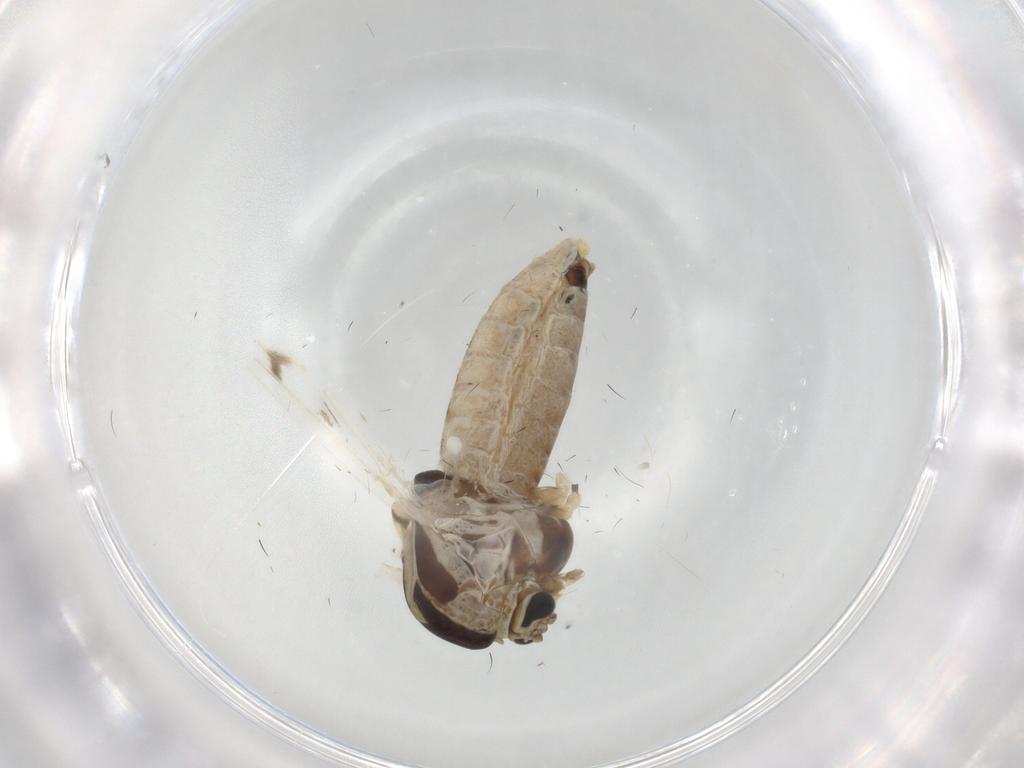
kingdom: Animalia
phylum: Arthropoda
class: Insecta
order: Diptera
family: Chironomidae
